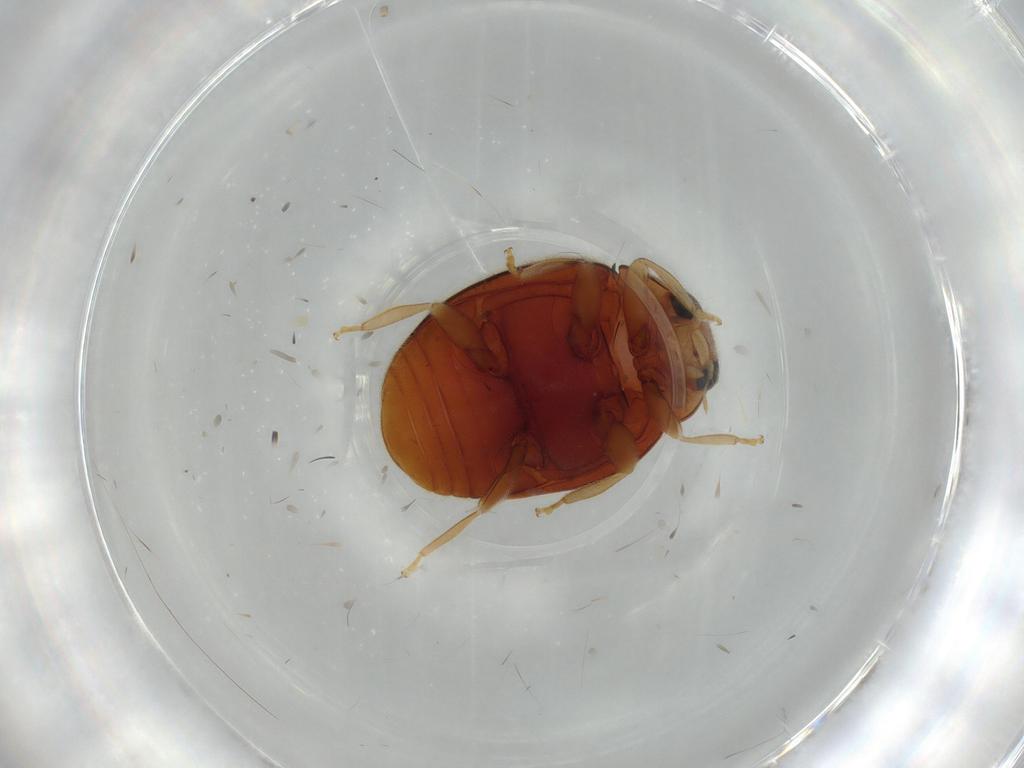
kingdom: Animalia
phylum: Arthropoda
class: Insecta
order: Coleoptera
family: Coccinellidae
